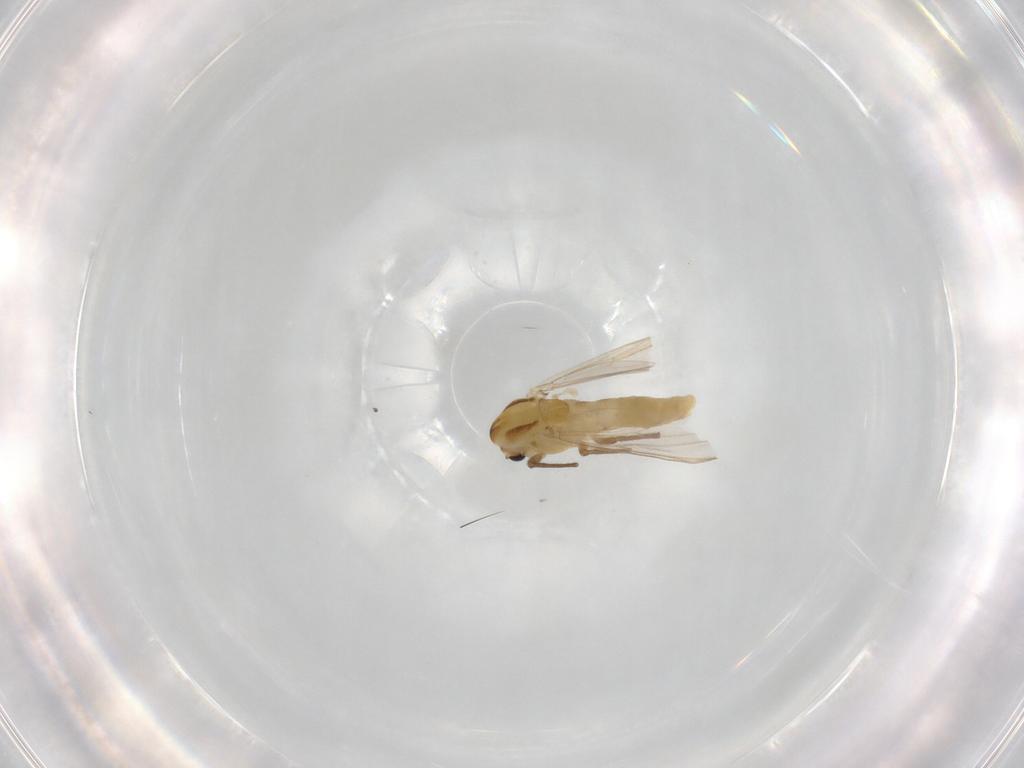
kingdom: Animalia
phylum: Arthropoda
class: Insecta
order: Diptera
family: Chironomidae
